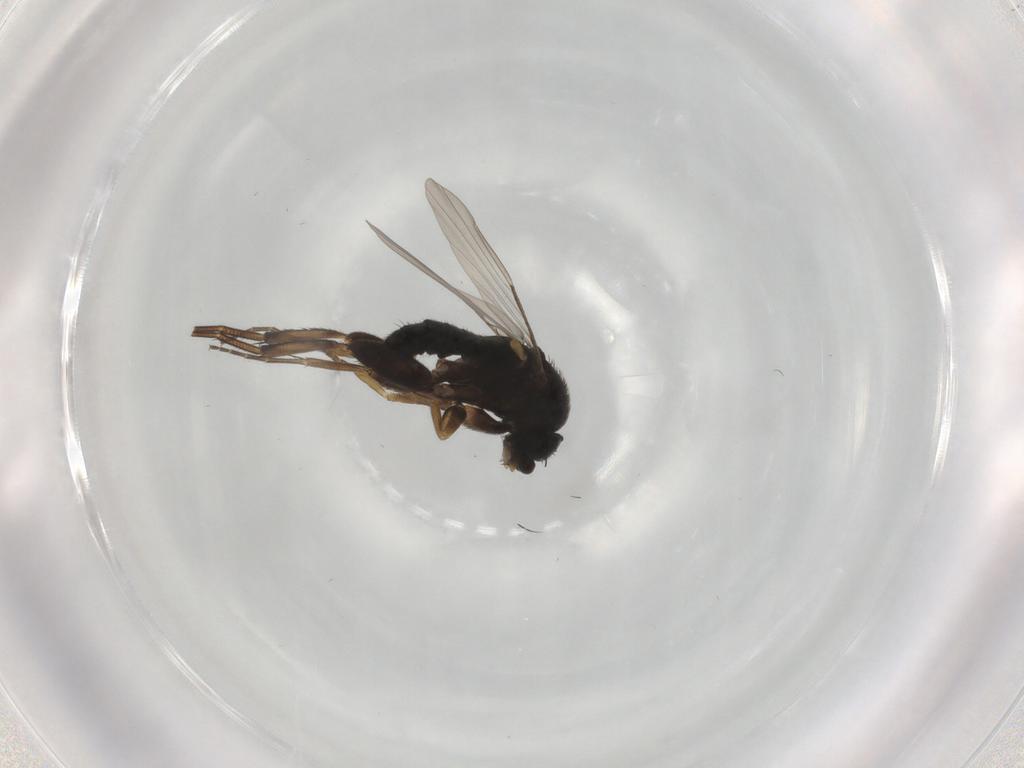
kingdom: Animalia
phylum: Arthropoda
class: Insecta
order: Diptera
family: Phoridae
